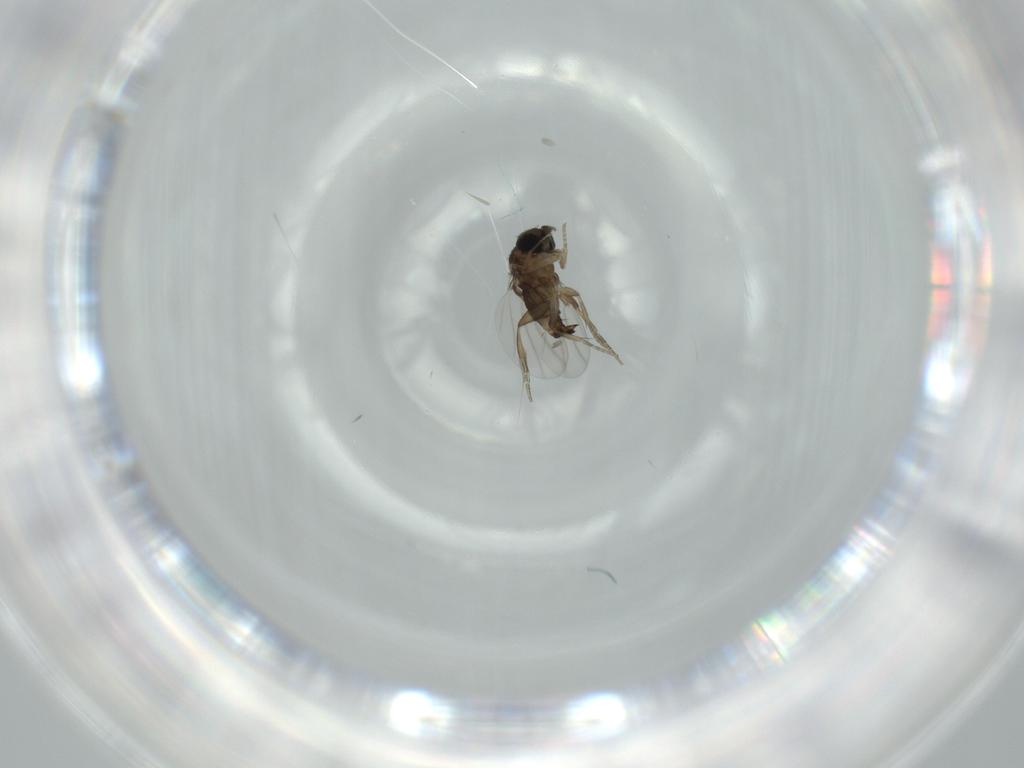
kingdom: Animalia
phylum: Arthropoda
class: Insecta
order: Diptera
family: Phoridae
